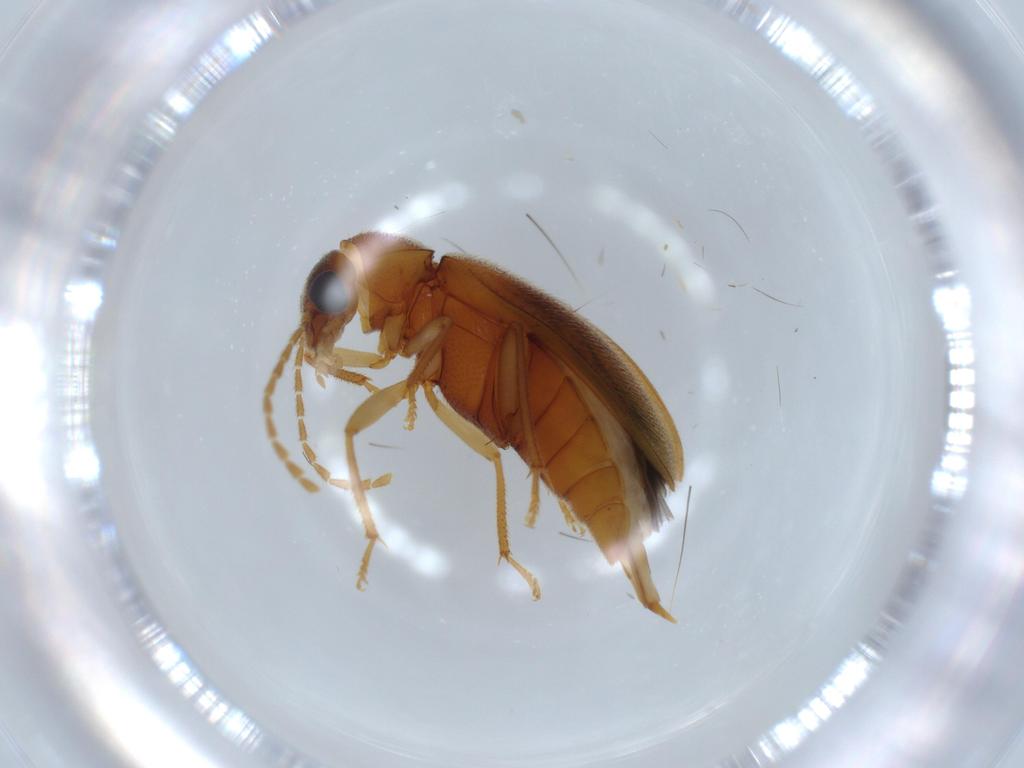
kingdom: Animalia
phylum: Arthropoda
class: Insecta
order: Coleoptera
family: Ptilodactylidae
